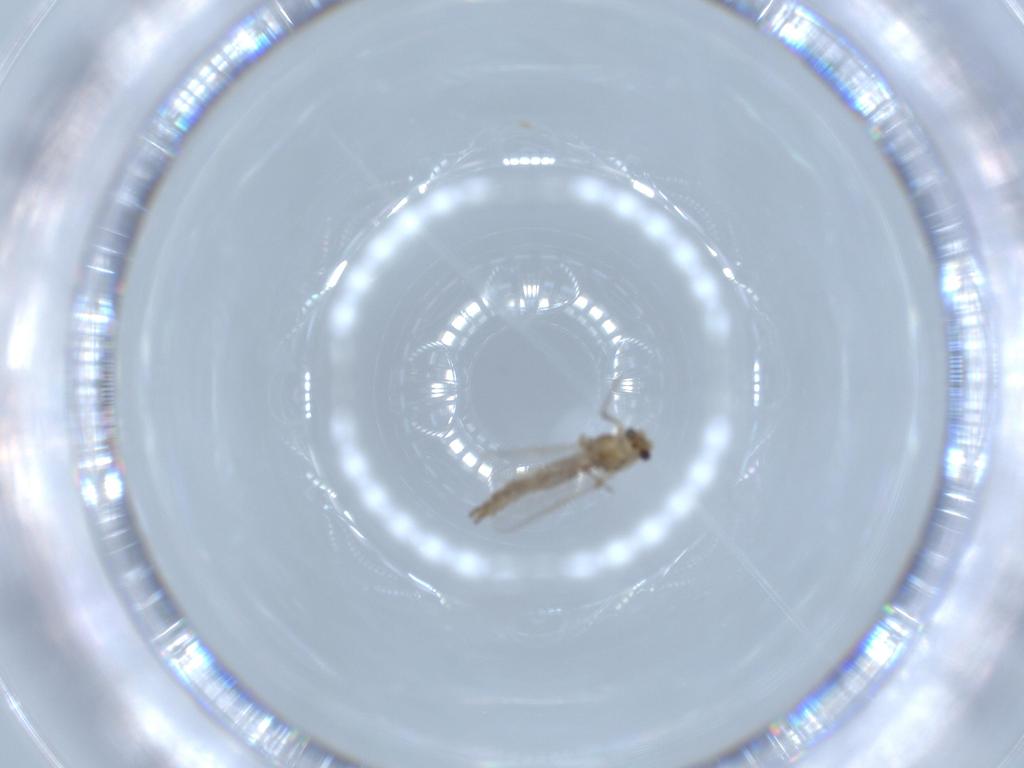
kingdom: Animalia
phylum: Arthropoda
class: Insecta
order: Diptera
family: Chironomidae
